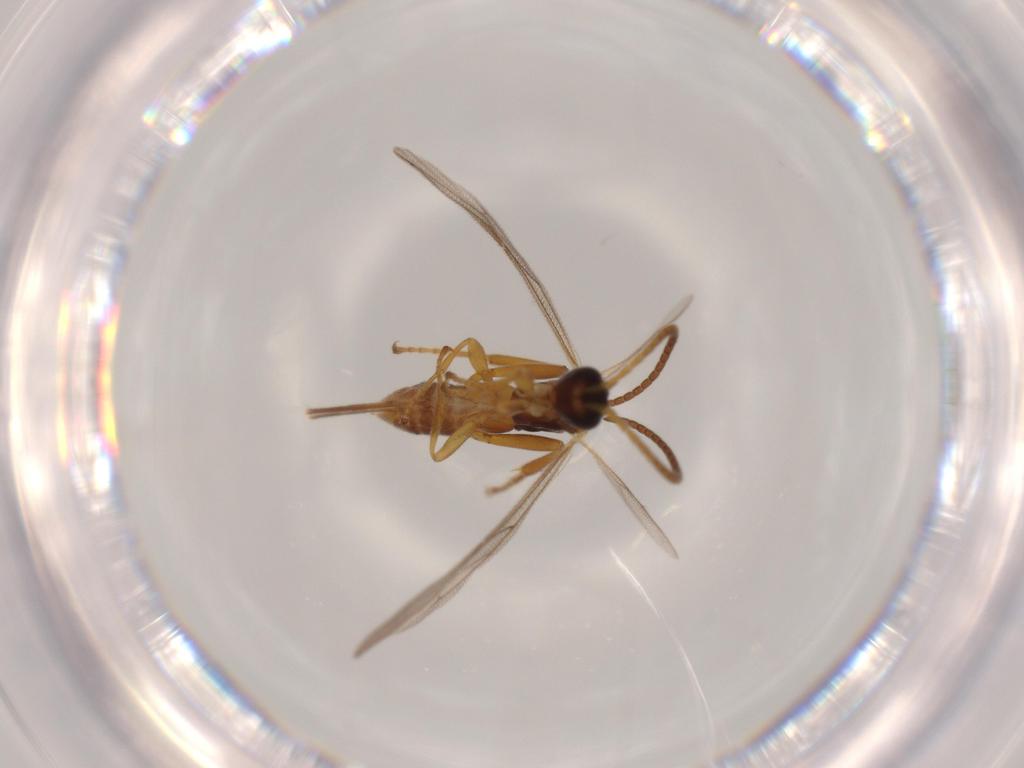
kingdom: Animalia
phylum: Arthropoda
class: Insecta
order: Hymenoptera
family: Ichneumonidae
